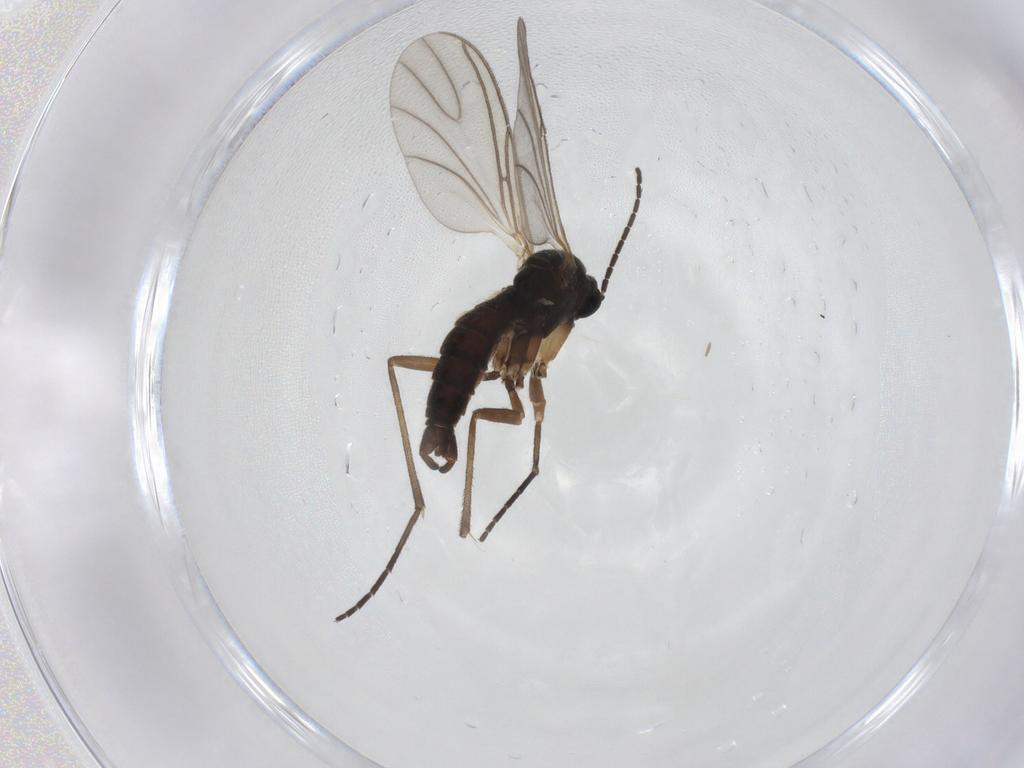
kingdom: Animalia
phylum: Arthropoda
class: Insecta
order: Diptera
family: Sciaridae
